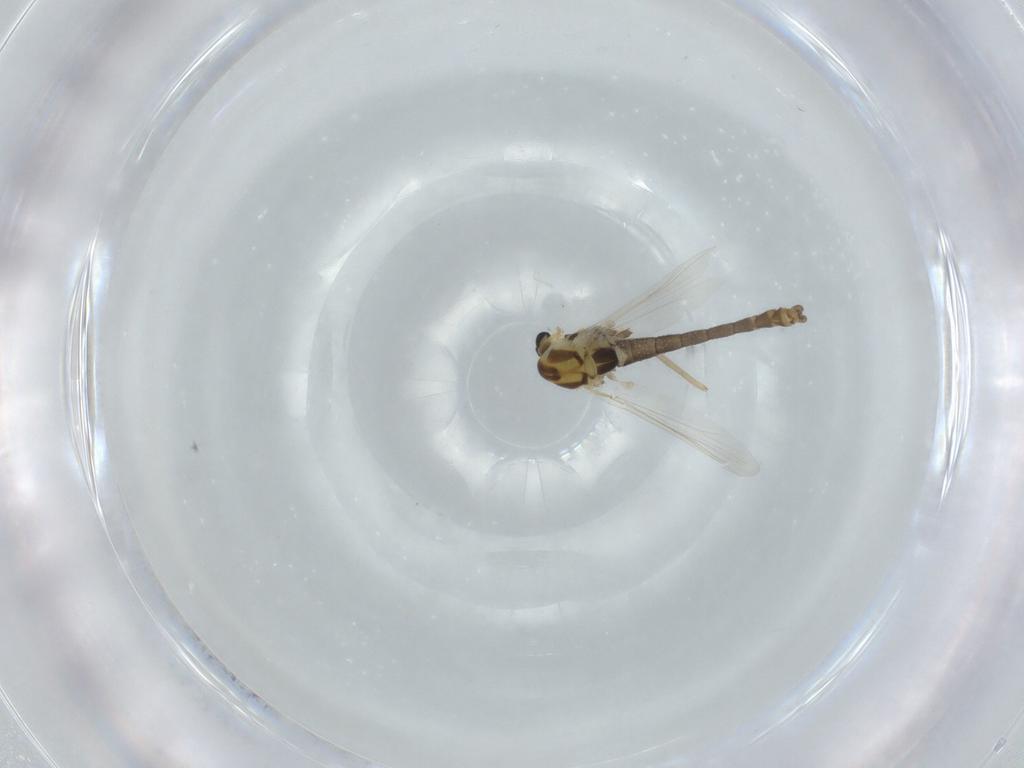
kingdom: Animalia
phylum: Arthropoda
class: Insecta
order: Diptera
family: Chironomidae
